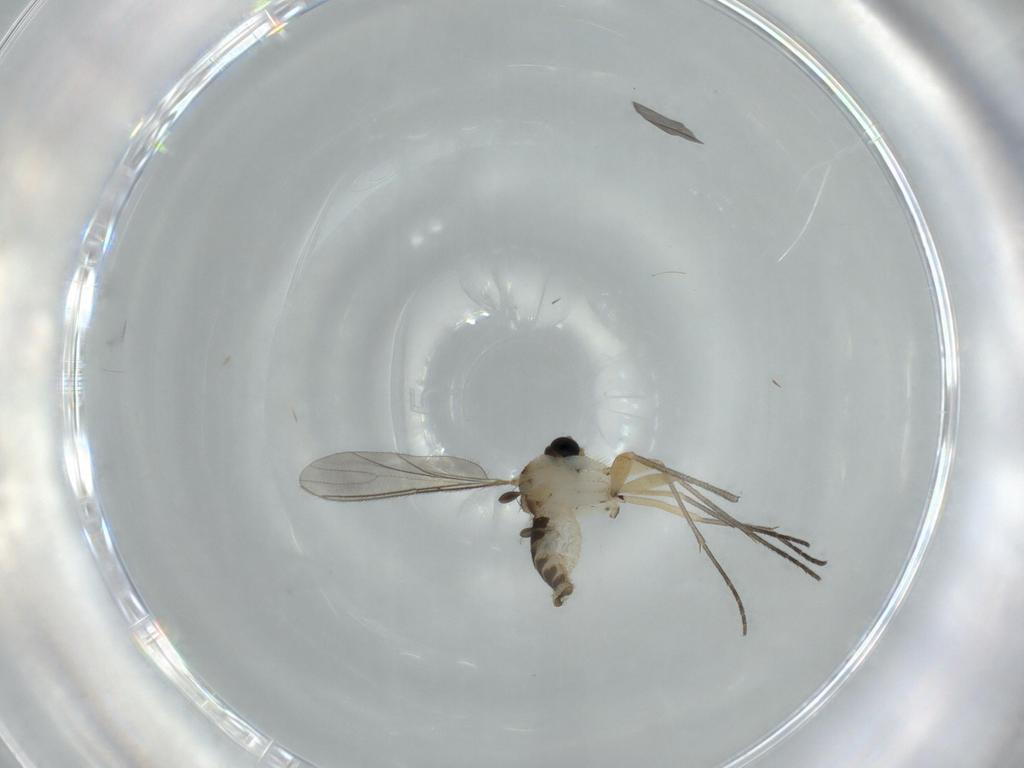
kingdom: Animalia
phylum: Arthropoda
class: Insecta
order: Diptera
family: Sciaridae
